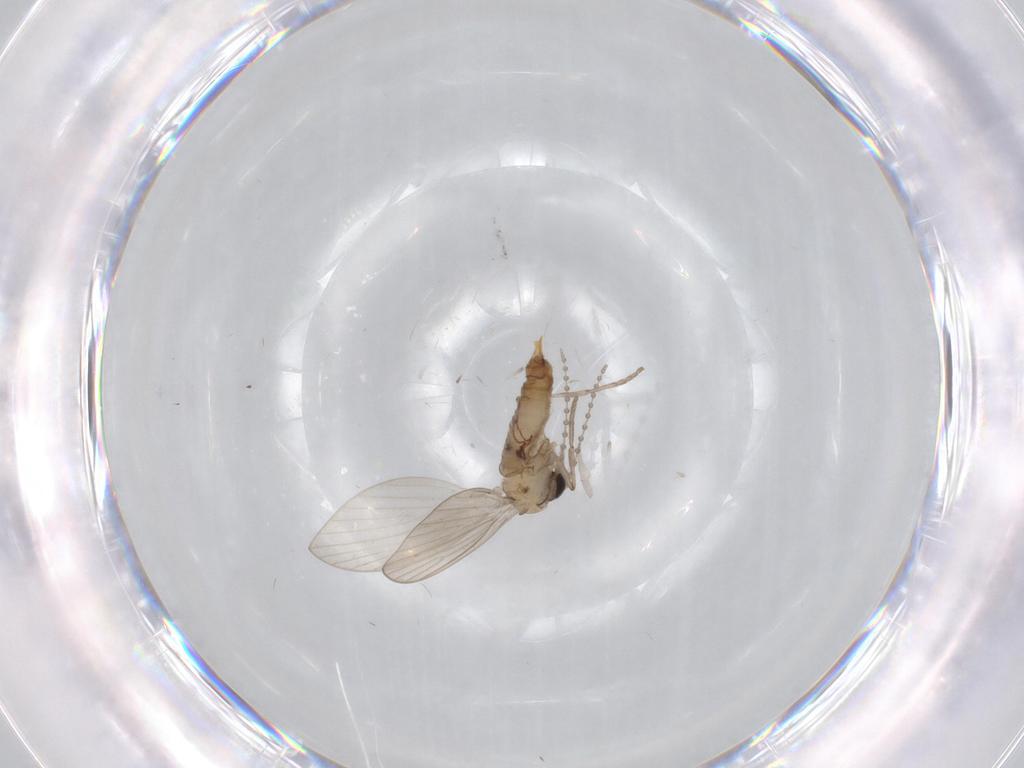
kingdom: Animalia
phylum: Arthropoda
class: Insecta
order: Diptera
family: Psychodidae
